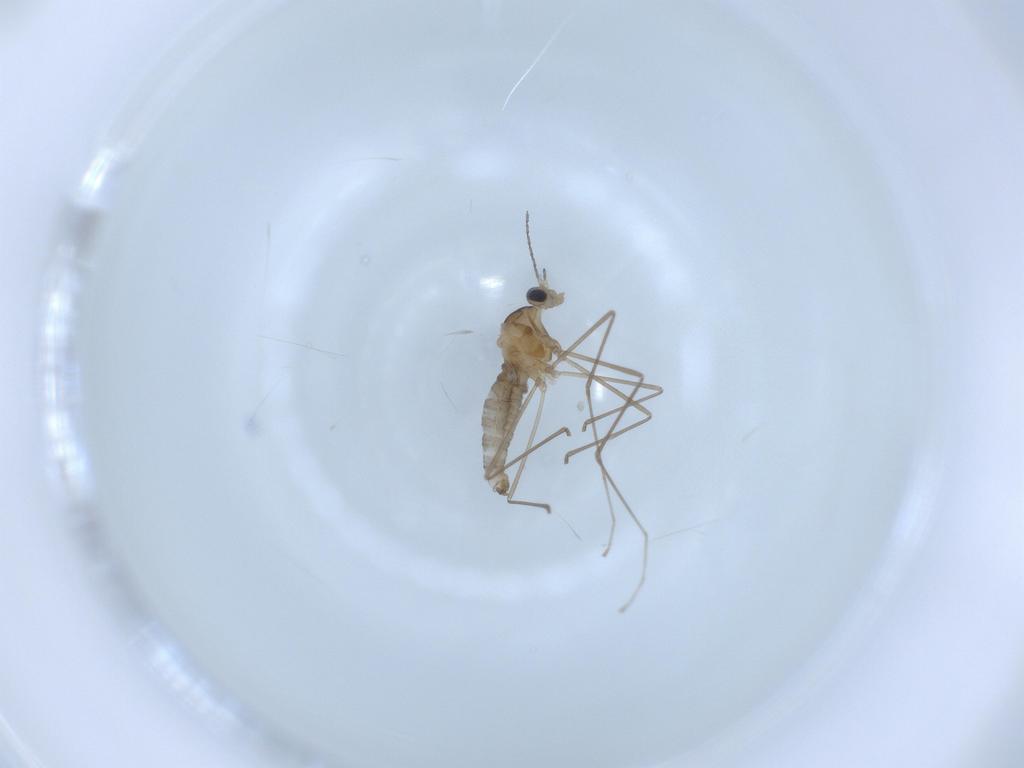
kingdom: Animalia
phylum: Arthropoda
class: Insecta
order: Diptera
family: Cecidomyiidae
